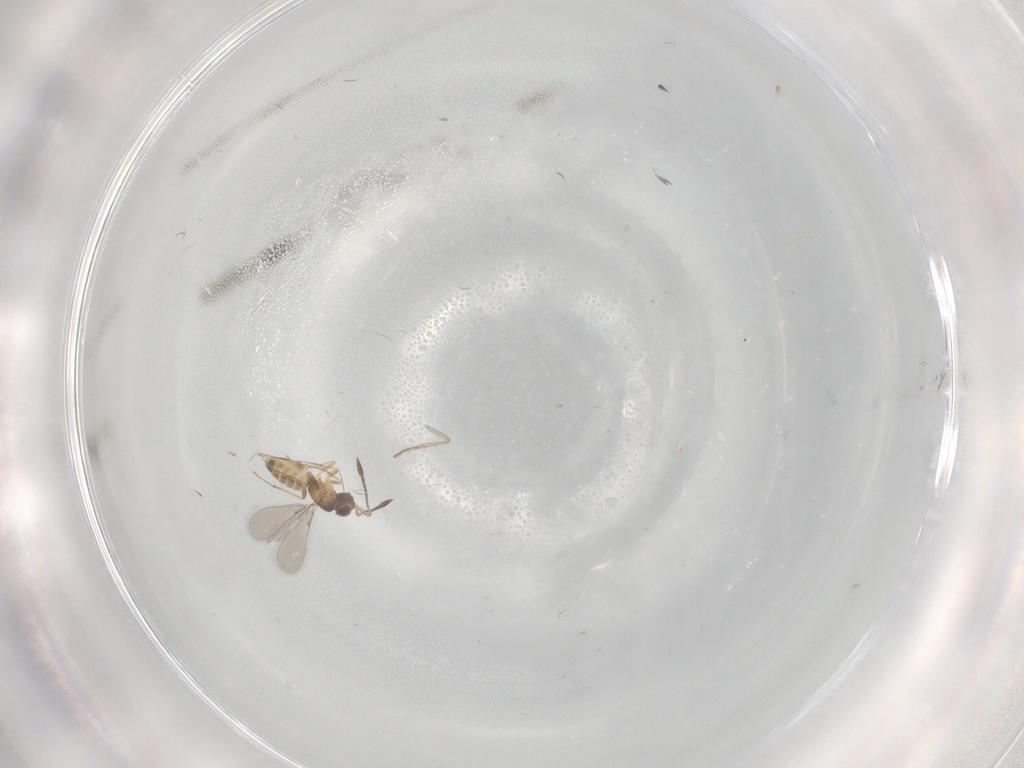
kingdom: Animalia
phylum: Arthropoda
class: Insecta
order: Hymenoptera
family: Mymaridae
